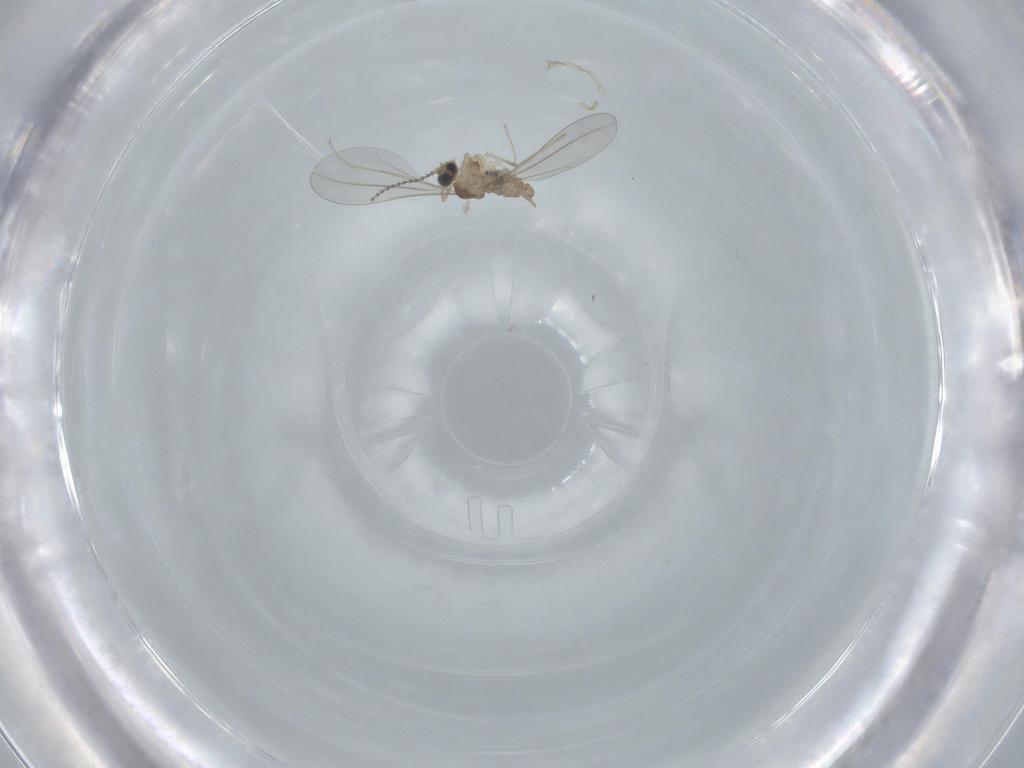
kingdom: Animalia
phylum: Arthropoda
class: Insecta
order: Diptera
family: Cecidomyiidae
